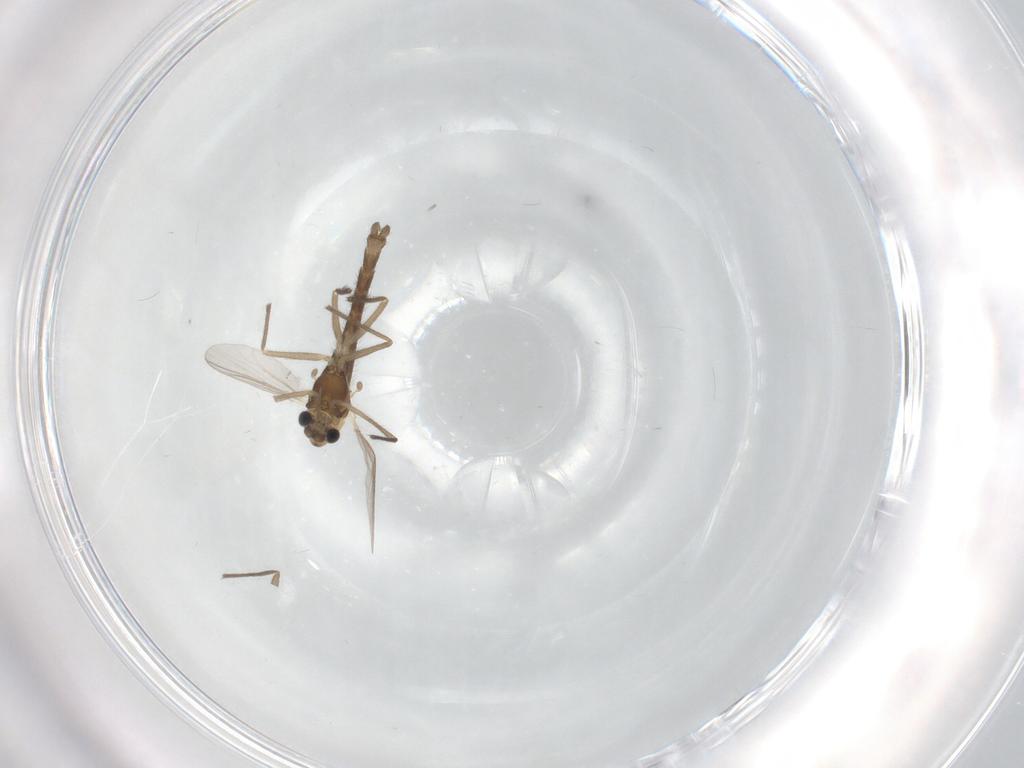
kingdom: Animalia
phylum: Arthropoda
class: Insecta
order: Diptera
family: Chironomidae
